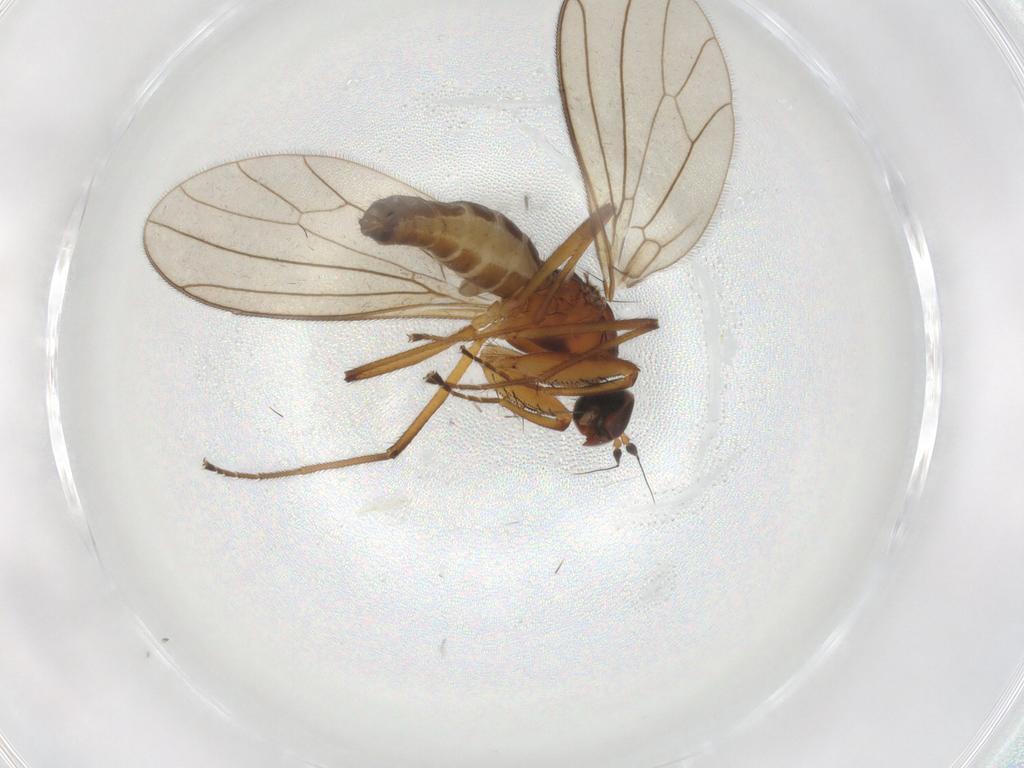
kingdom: Animalia
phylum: Arthropoda
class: Insecta
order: Diptera
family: Empididae
